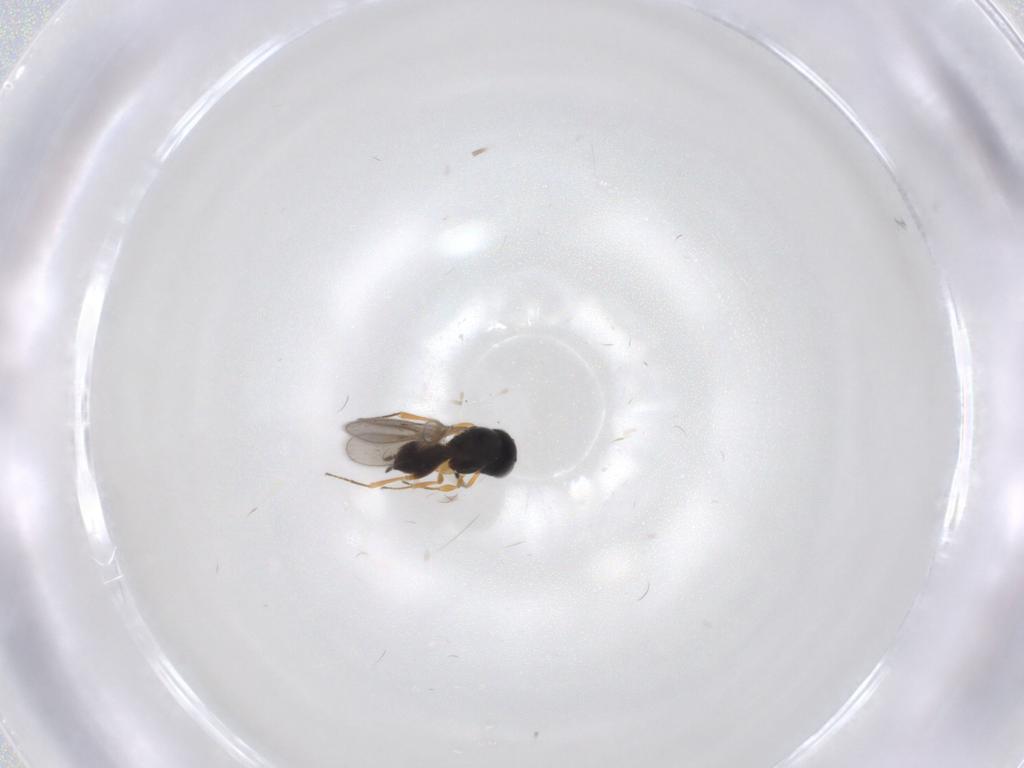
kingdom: Animalia
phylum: Arthropoda
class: Insecta
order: Hymenoptera
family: Scelionidae
